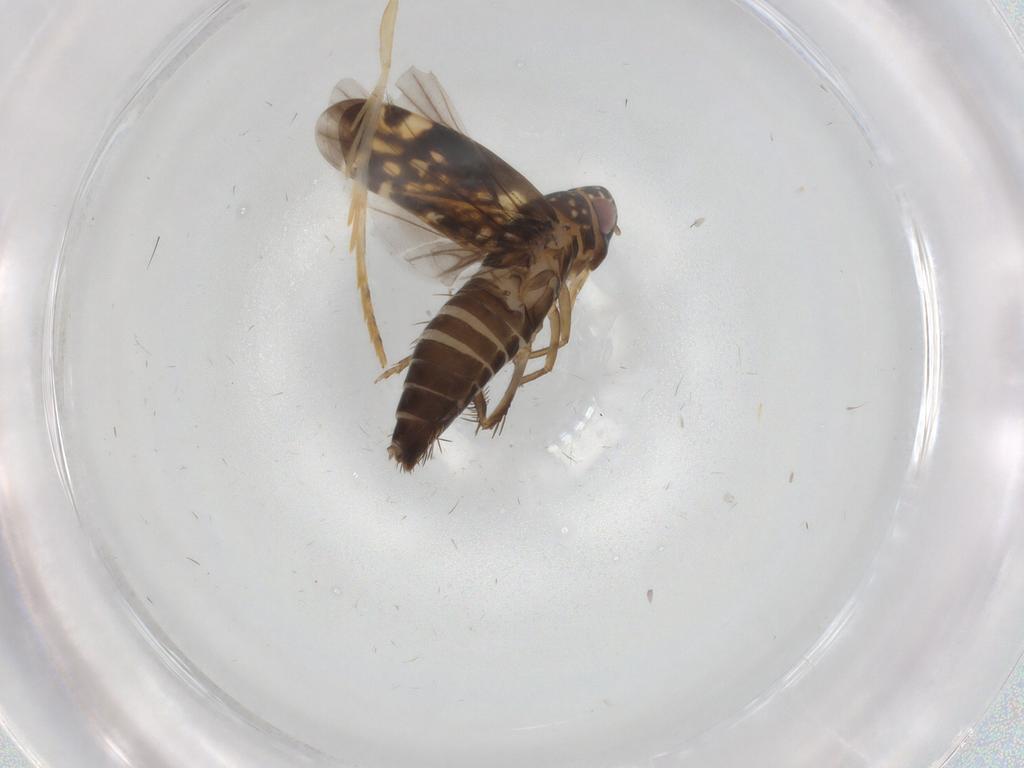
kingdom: Animalia
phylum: Arthropoda
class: Insecta
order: Hemiptera
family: Cicadellidae
